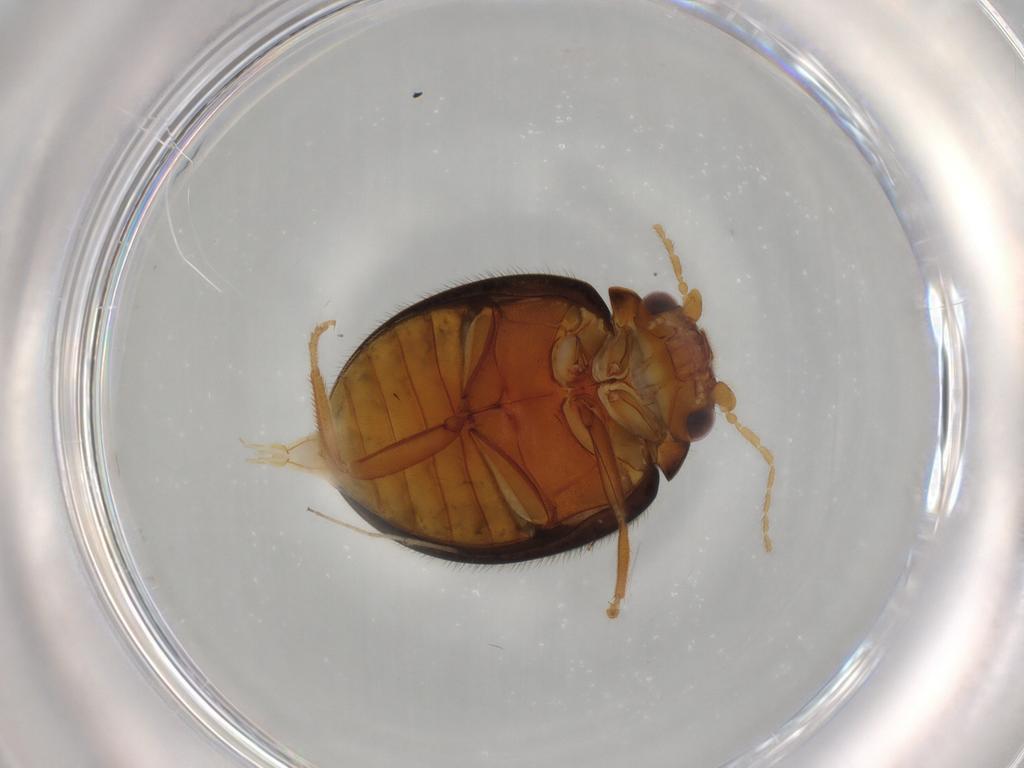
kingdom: Animalia
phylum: Arthropoda
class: Insecta
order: Coleoptera
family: Scirtidae
